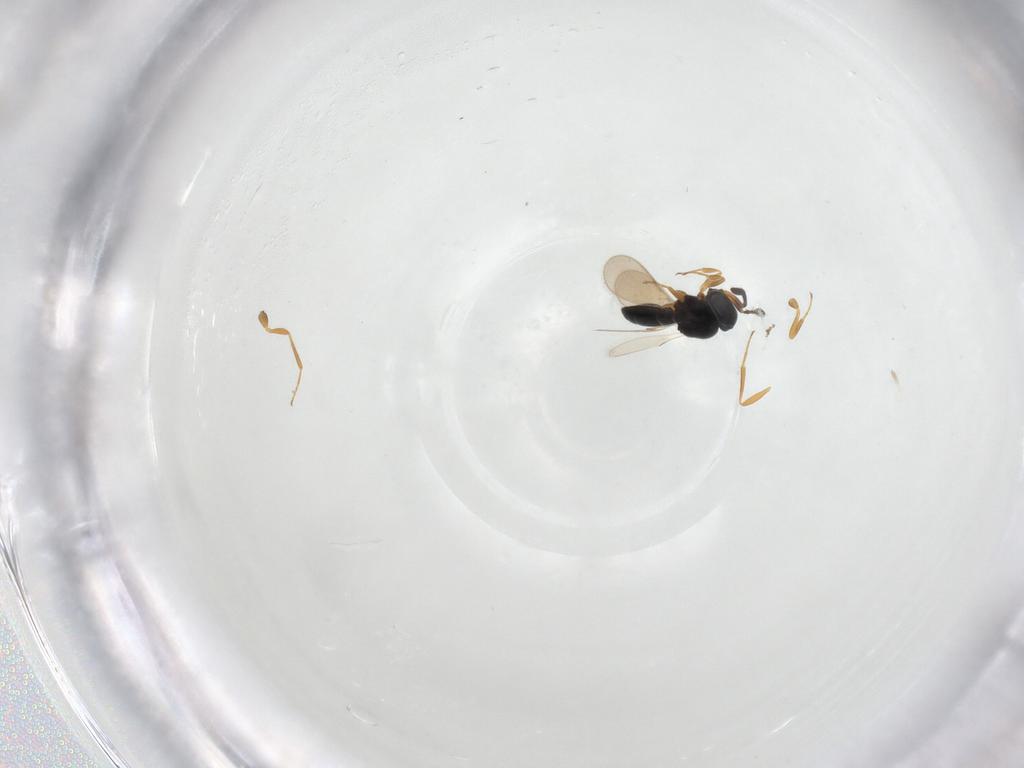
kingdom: Animalia
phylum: Arthropoda
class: Insecta
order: Hymenoptera
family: Scelionidae
